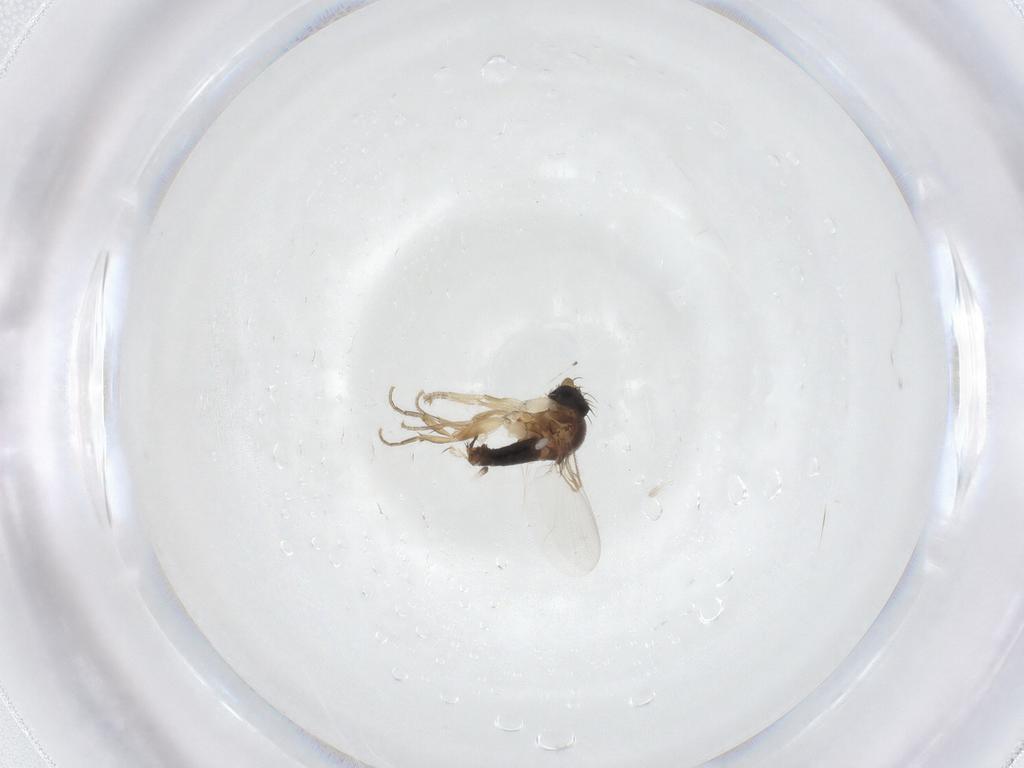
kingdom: Animalia
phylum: Arthropoda
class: Insecta
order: Diptera
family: Phoridae
